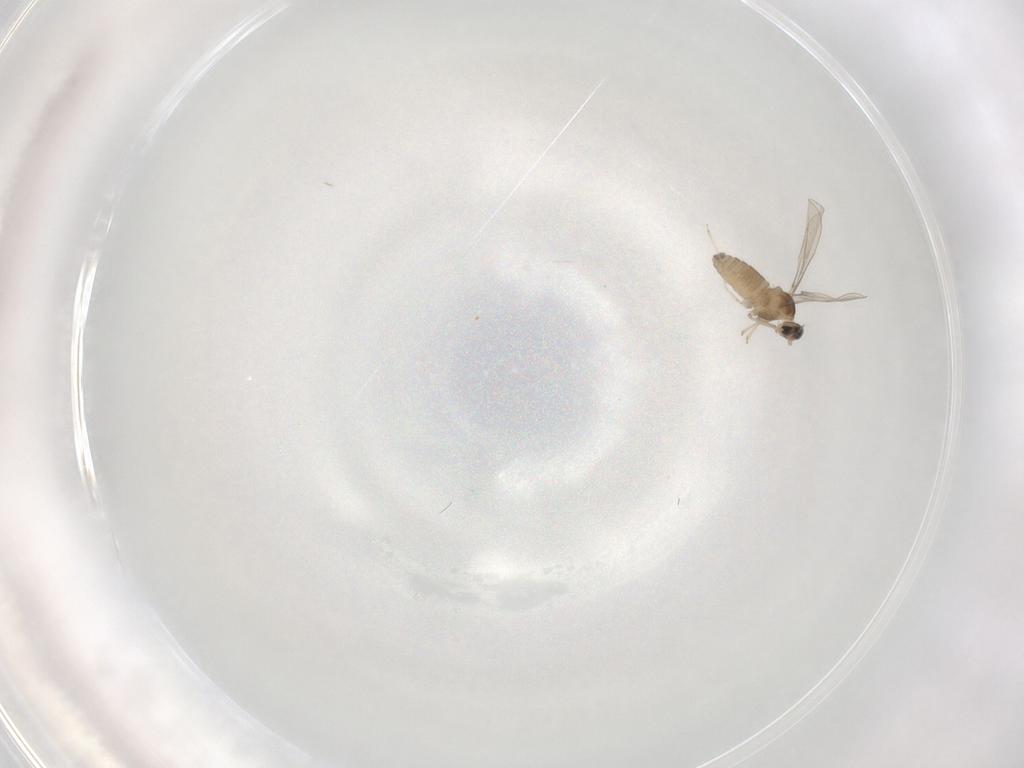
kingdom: Animalia
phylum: Arthropoda
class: Insecta
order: Diptera
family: Cecidomyiidae
